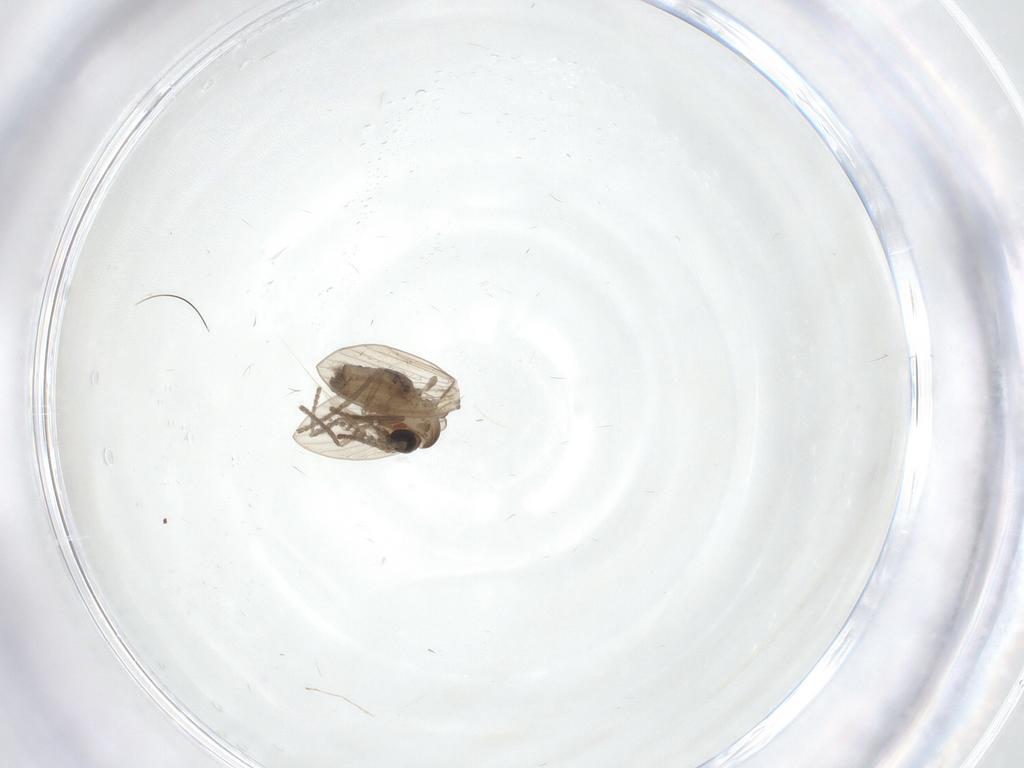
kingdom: Animalia
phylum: Arthropoda
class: Insecta
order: Diptera
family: Psychodidae
